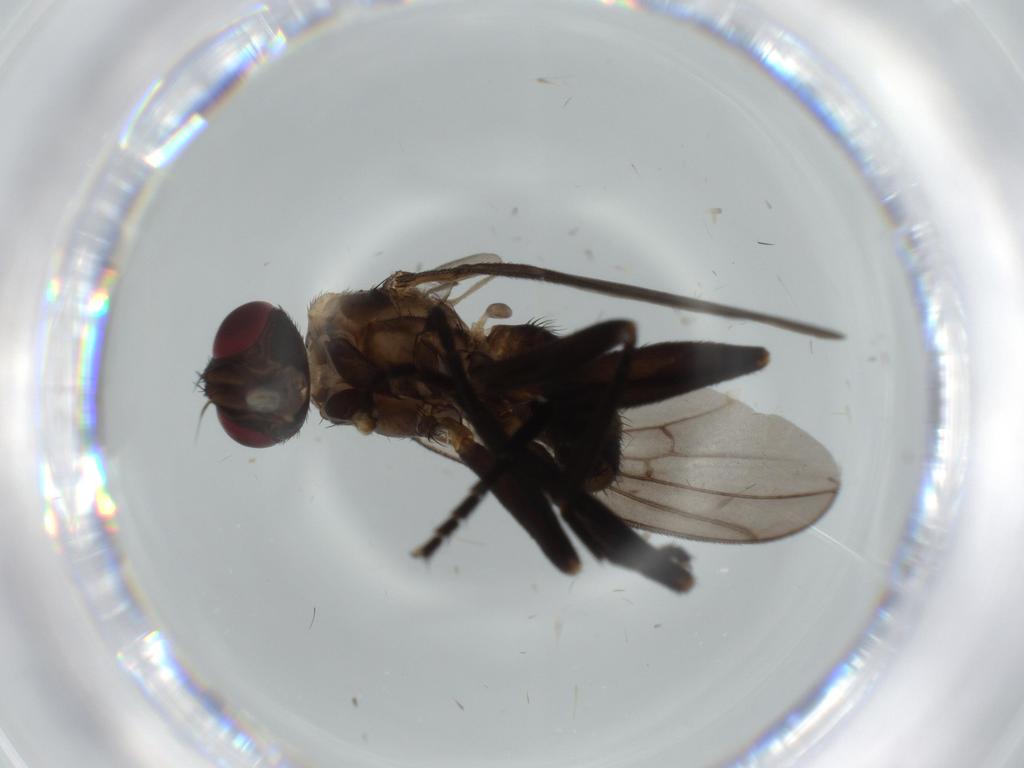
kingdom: Animalia
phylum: Arthropoda
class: Insecta
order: Diptera
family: Calliphoridae
